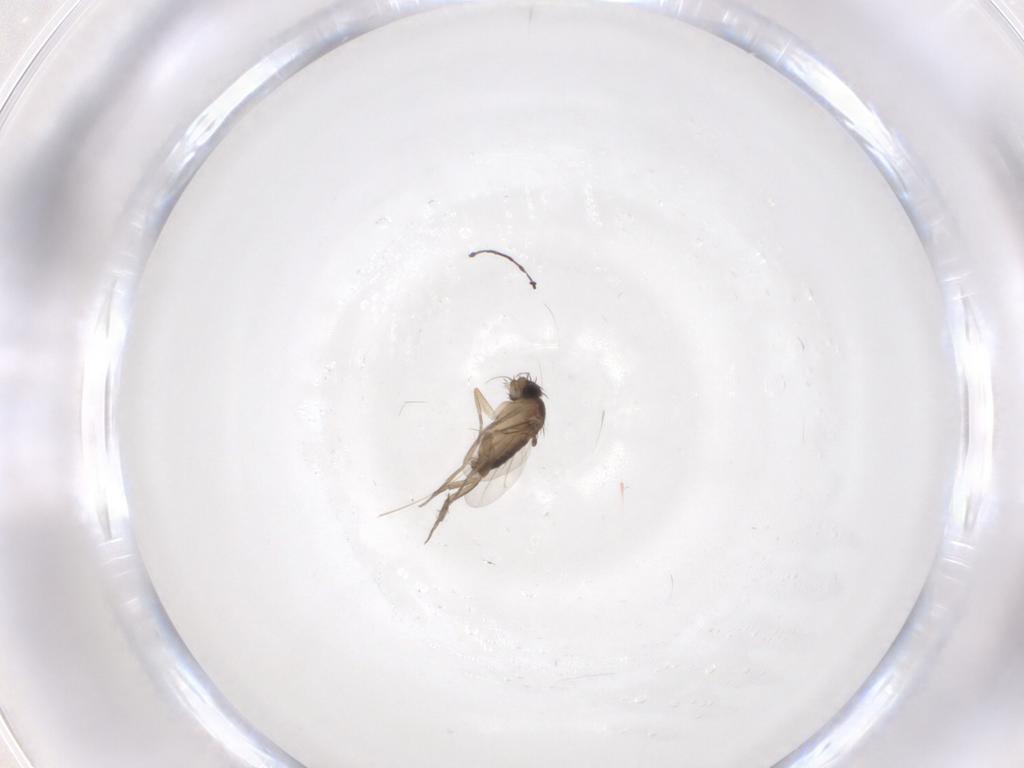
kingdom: Animalia
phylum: Arthropoda
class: Insecta
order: Diptera
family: Phoridae
